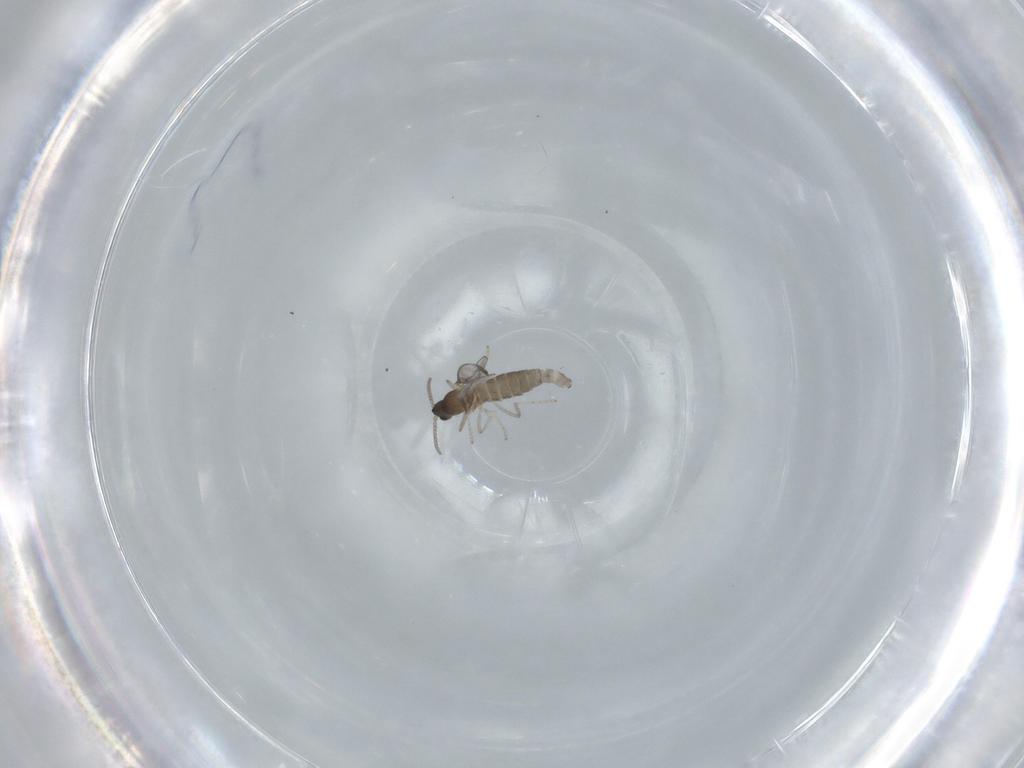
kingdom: Animalia
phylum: Arthropoda
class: Insecta
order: Diptera
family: Cecidomyiidae
